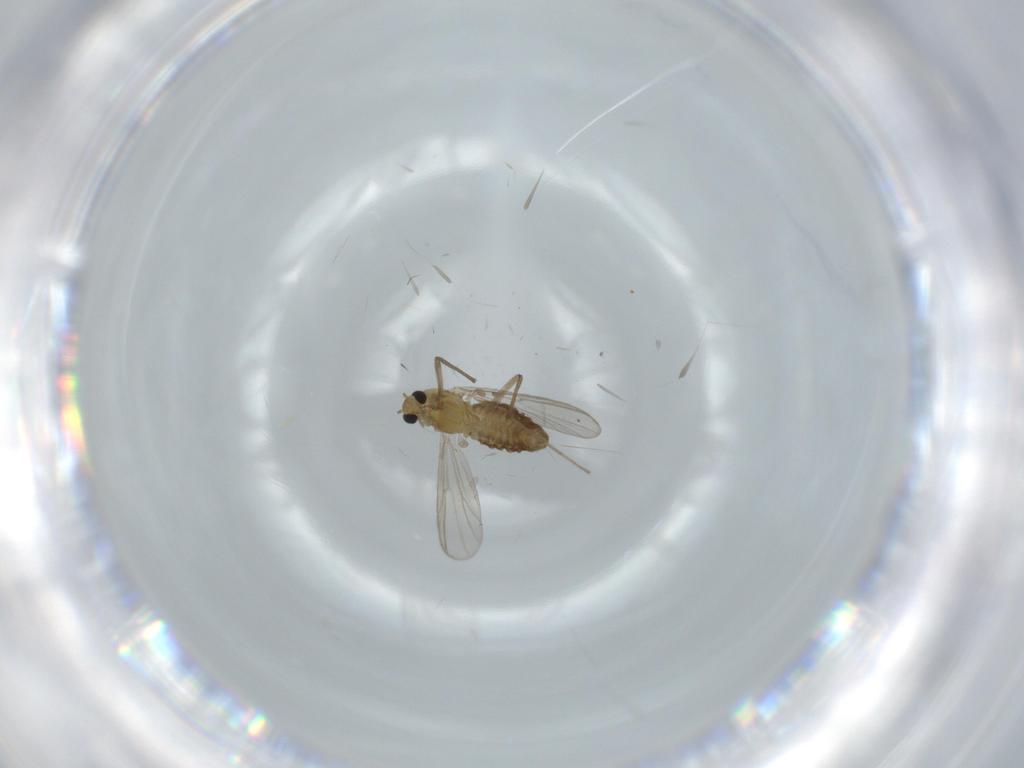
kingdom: Animalia
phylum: Arthropoda
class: Insecta
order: Diptera
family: Chironomidae
